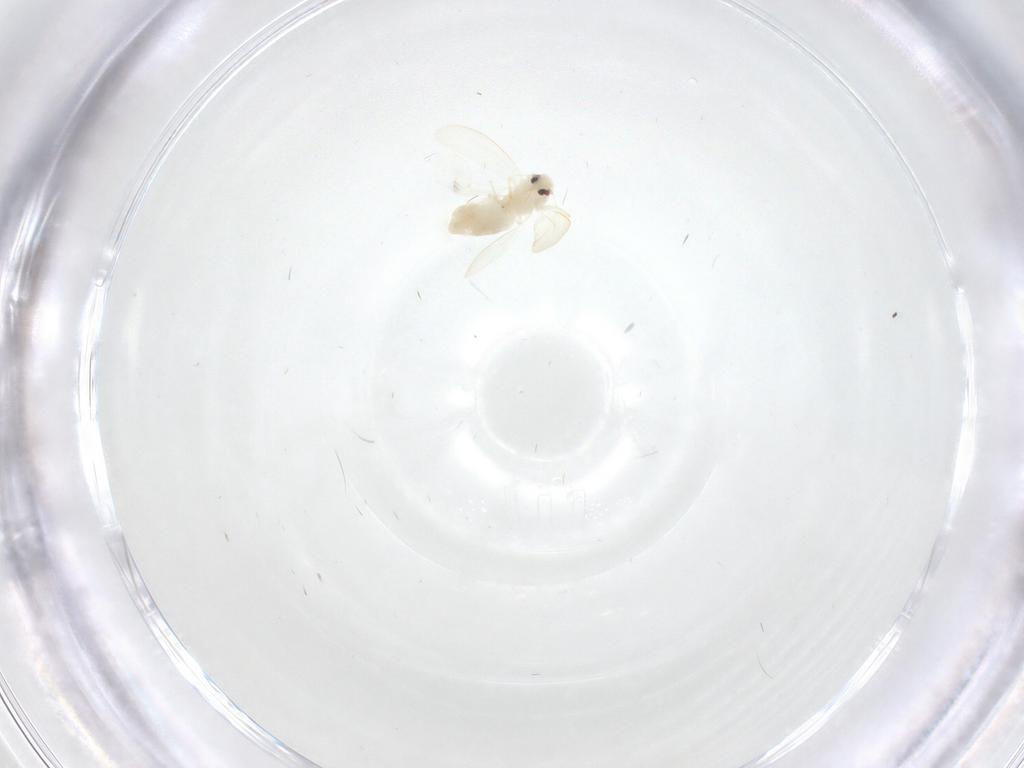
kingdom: Animalia
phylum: Arthropoda
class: Insecta
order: Hemiptera
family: Aleyrodidae
